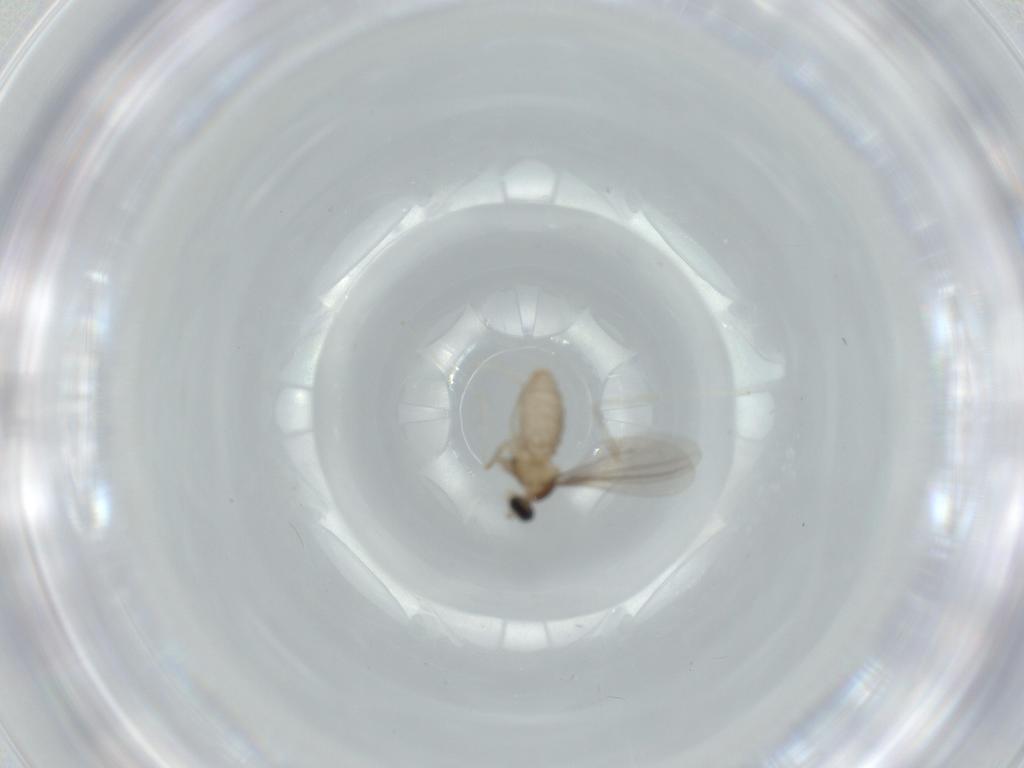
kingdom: Animalia
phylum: Arthropoda
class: Insecta
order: Diptera
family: Cecidomyiidae
